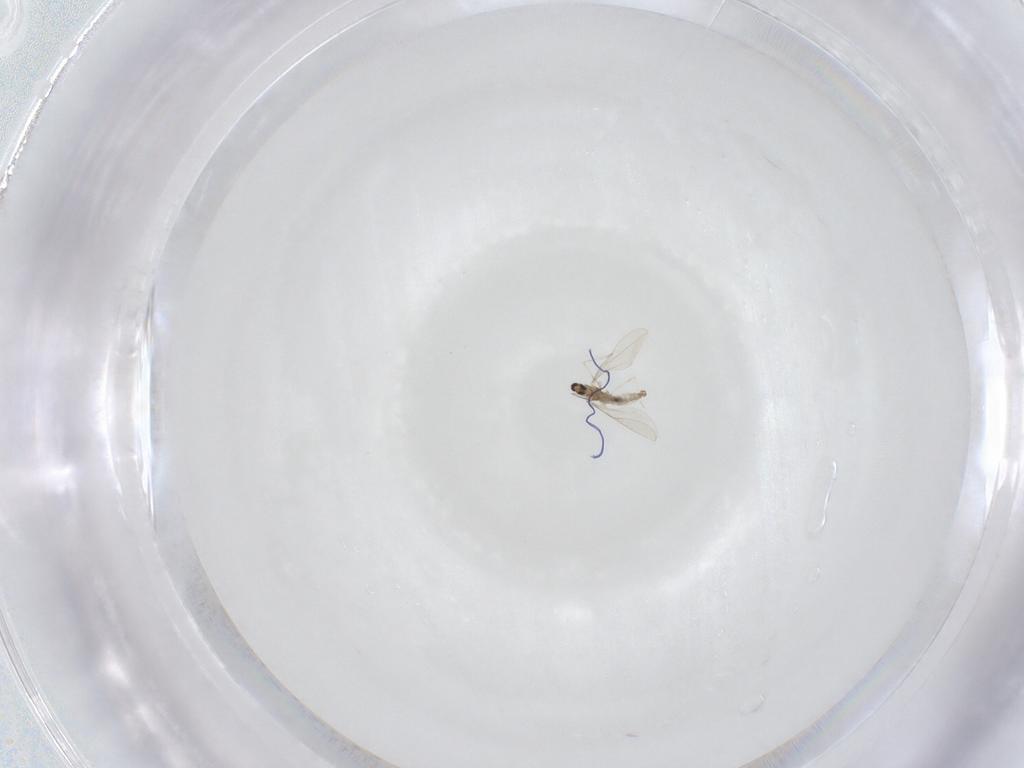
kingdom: Animalia
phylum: Arthropoda
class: Insecta
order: Diptera
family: Cecidomyiidae
